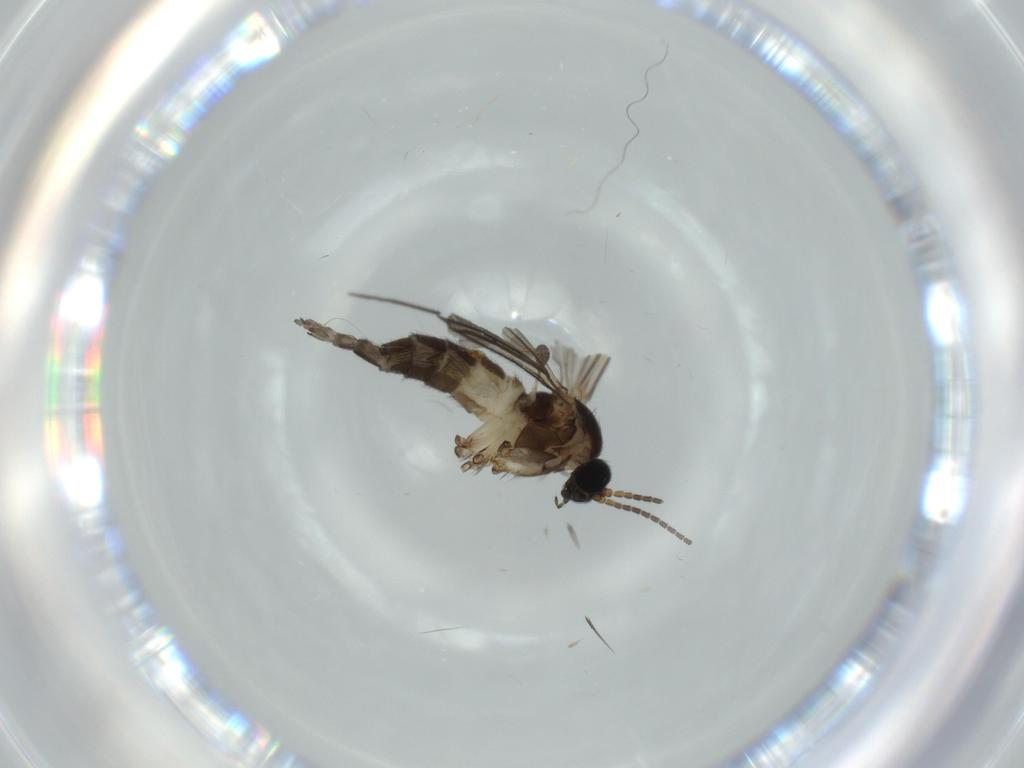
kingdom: Animalia
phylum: Arthropoda
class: Insecta
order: Diptera
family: Sciaridae
